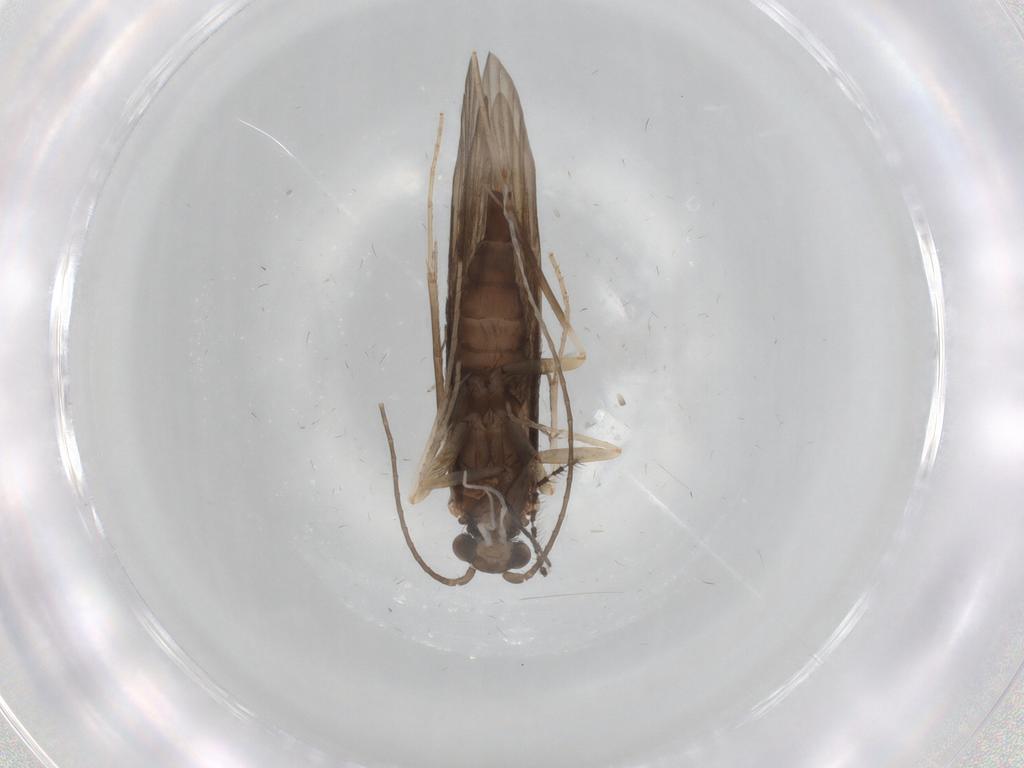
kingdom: Animalia
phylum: Arthropoda
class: Insecta
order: Trichoptera
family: Xiphocentronidae
